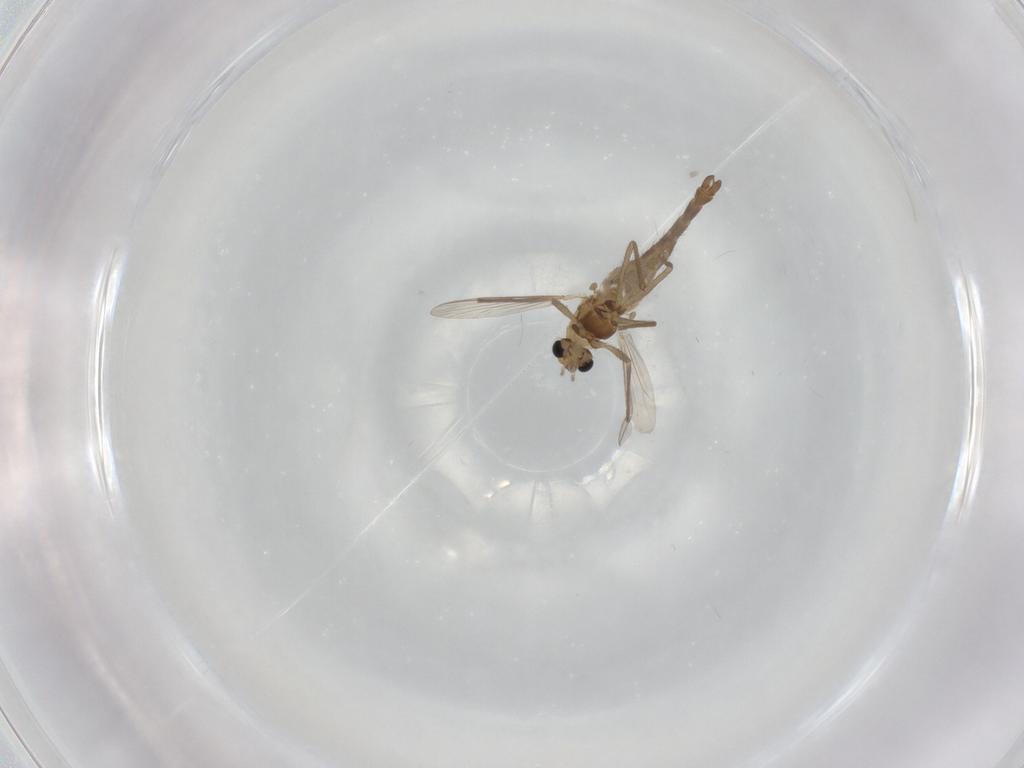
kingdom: Animalia
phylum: Arthropoda
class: Insecta
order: Diptera
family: Chironomidae
